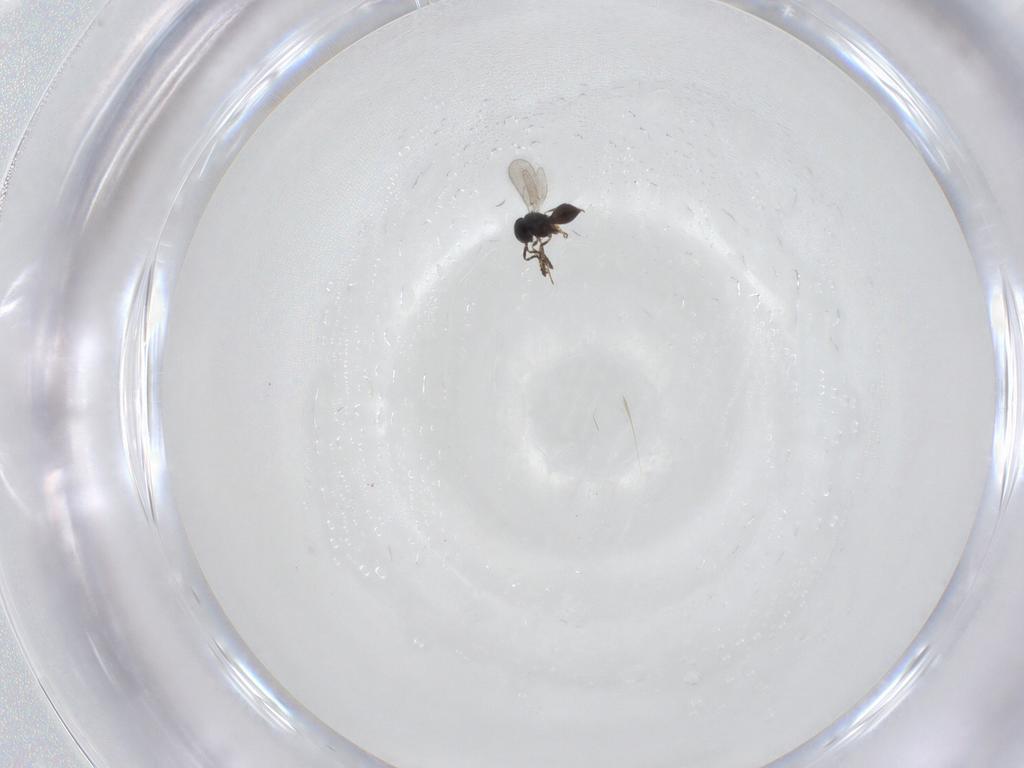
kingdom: Animalia
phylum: Arthropoda
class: Insecta
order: Hymenoptera
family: Scelionidae
